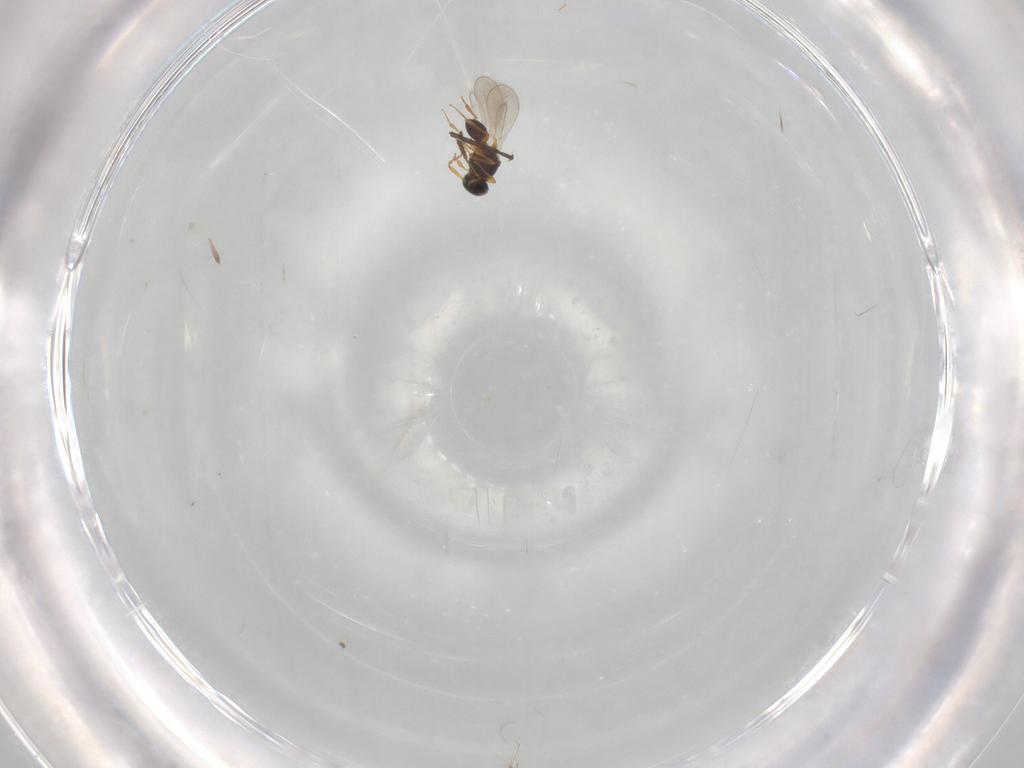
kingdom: Animalia
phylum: Arthropoda
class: Insecta
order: Hymenoptera
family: Platygastridae
